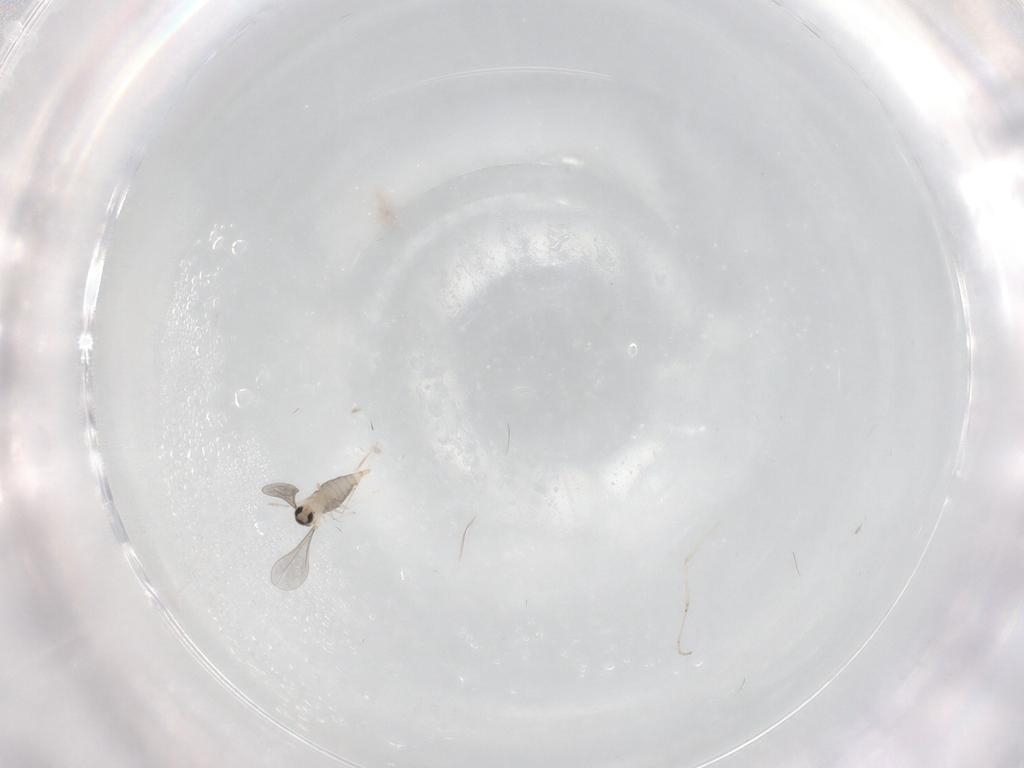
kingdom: Animalia
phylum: Arthropoda
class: Insecta
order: Diptera
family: Cecidomyiidae
